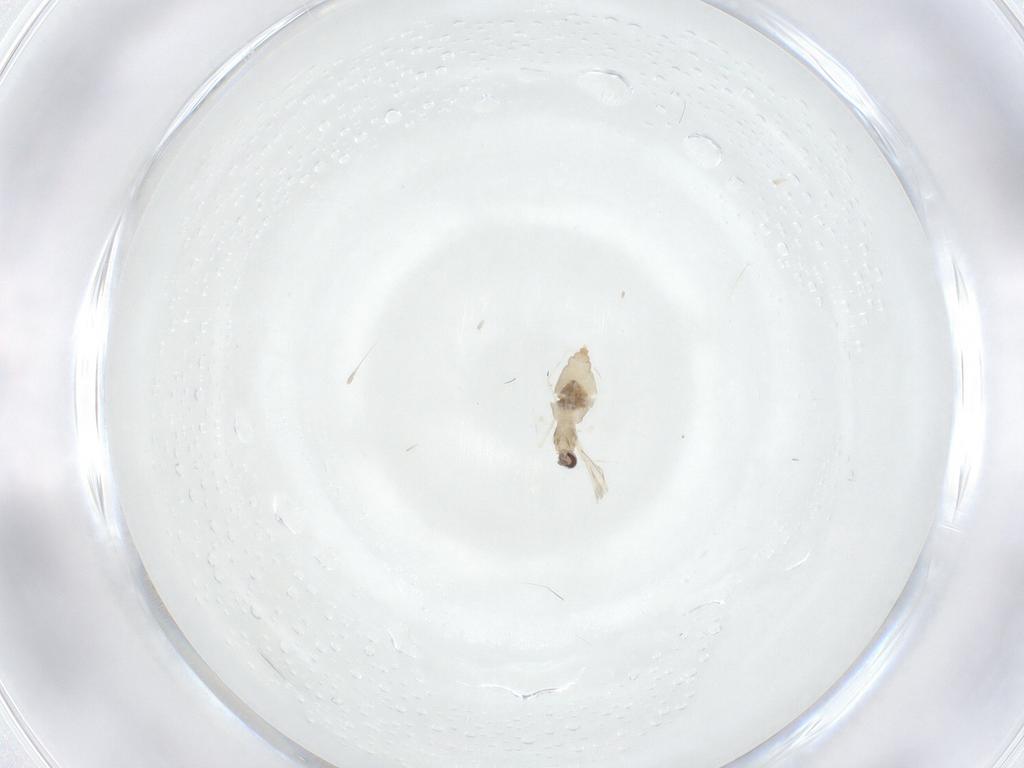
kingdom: Animalia
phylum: Arthropoda
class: Insecta
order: Diptera
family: Cecidomyiidae
